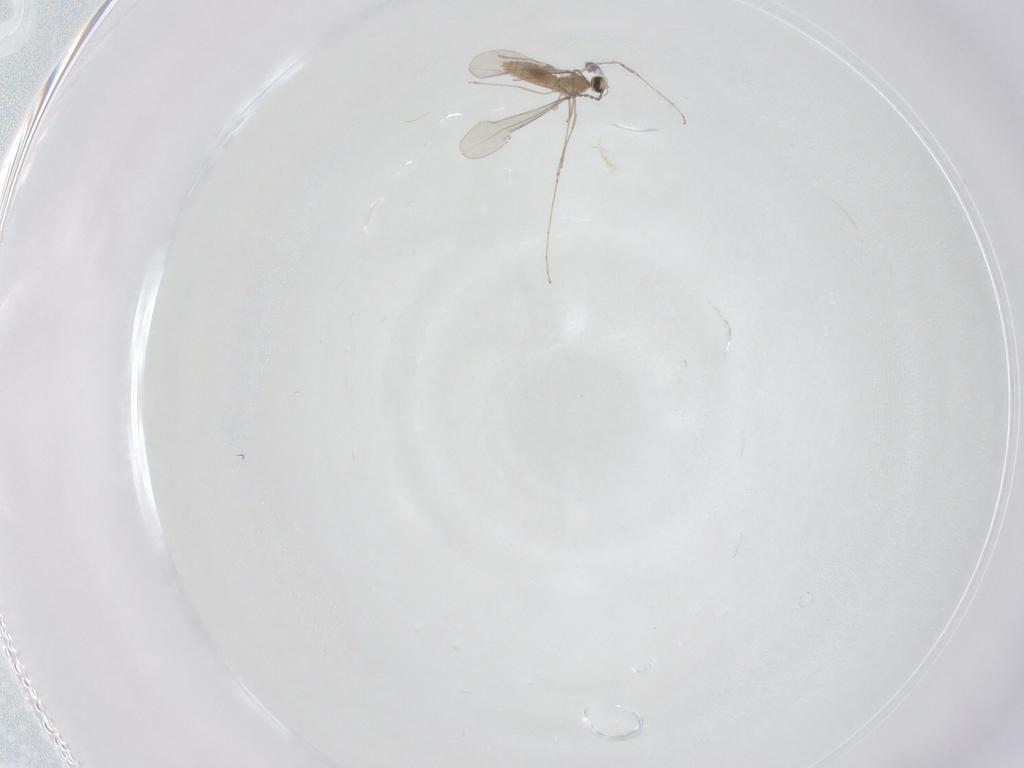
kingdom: Animalia
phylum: Arthropoda
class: Insecta
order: Diptera
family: Cecidomyiidae
